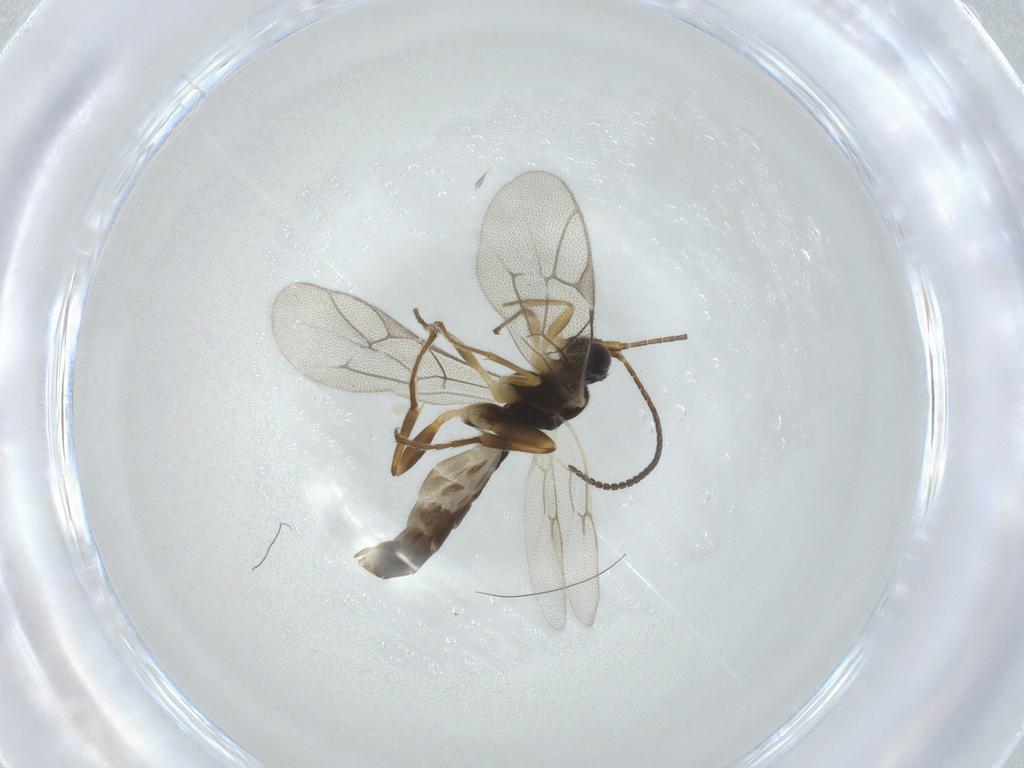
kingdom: Animalia
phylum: Arthropoda
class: Insecta
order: Hymenoptera
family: Ichneumonidae
